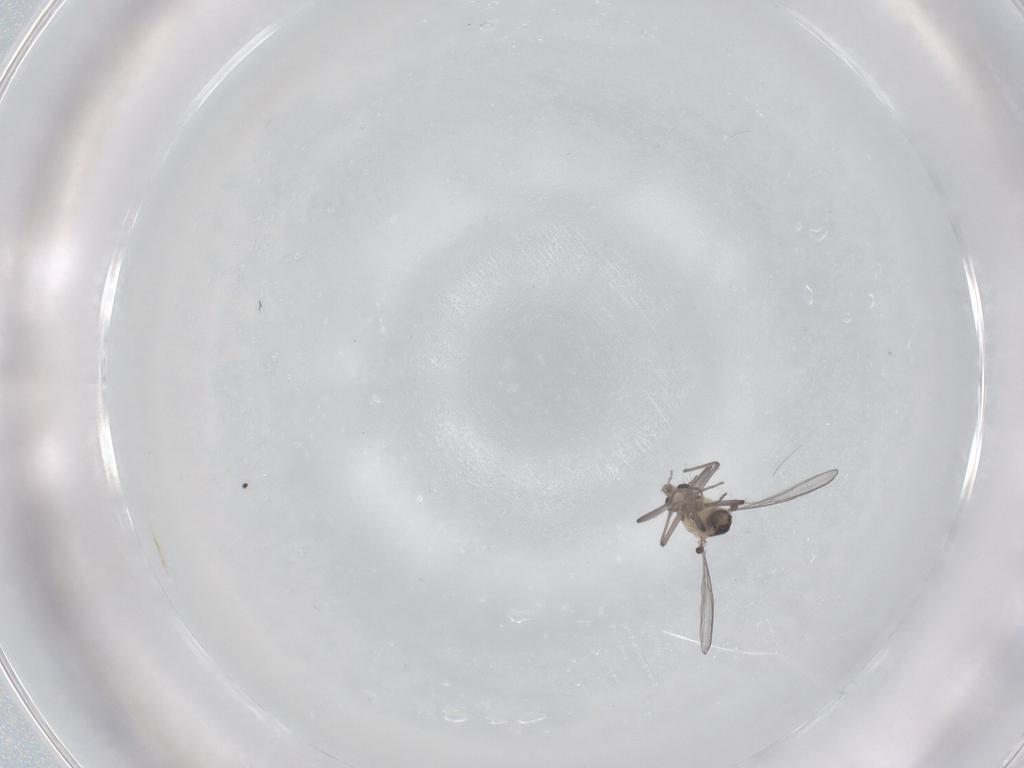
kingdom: Animalia
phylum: Arthropoda
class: Insecta
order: Diptera
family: Chironomidae
